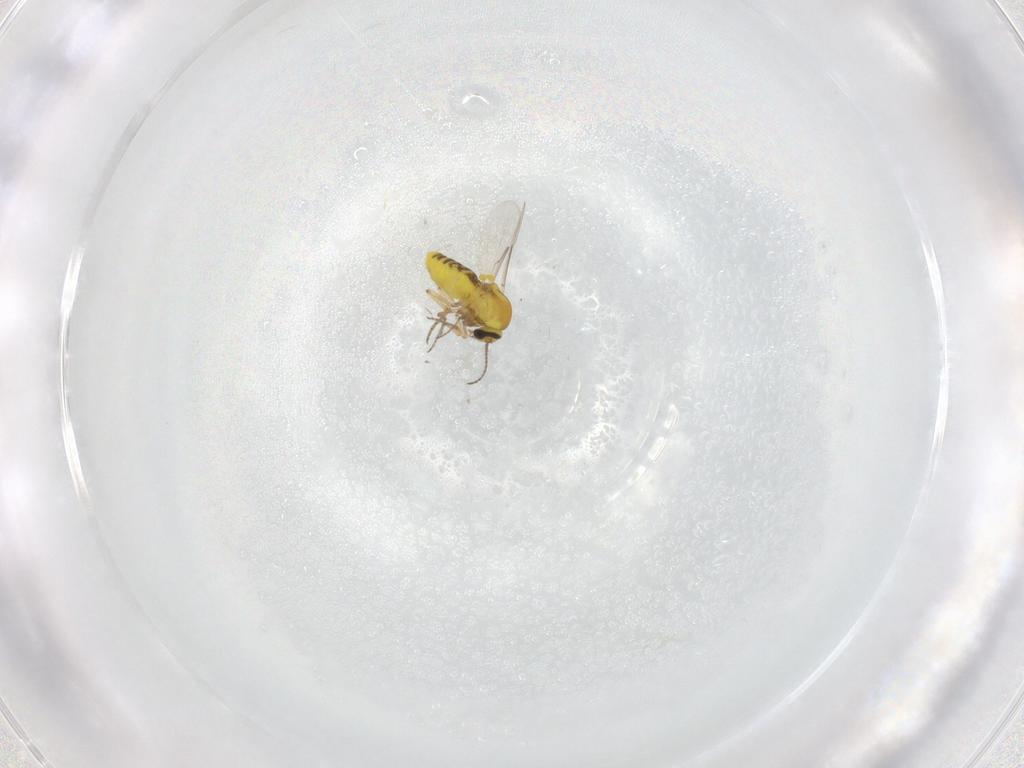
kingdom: Animalia
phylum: Arthropoda
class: Insecta
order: Diptera
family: Ceratopogonidae
